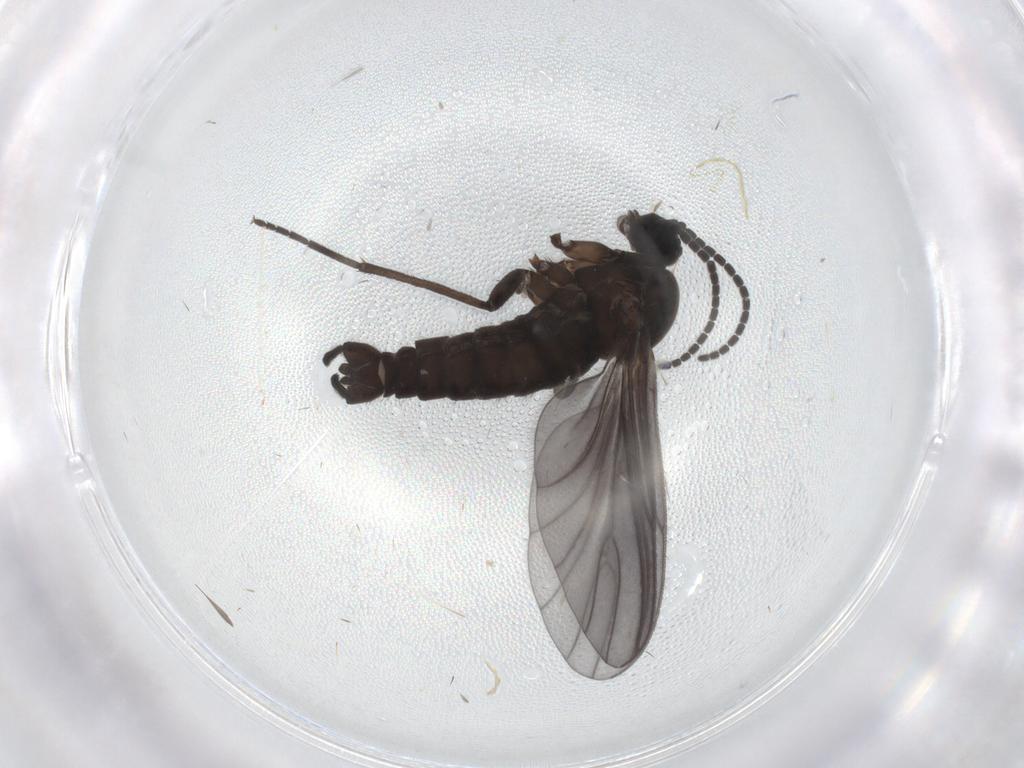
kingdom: Animalia
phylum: Arthropoda
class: Insecta
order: Diptera
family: Sciaridae
